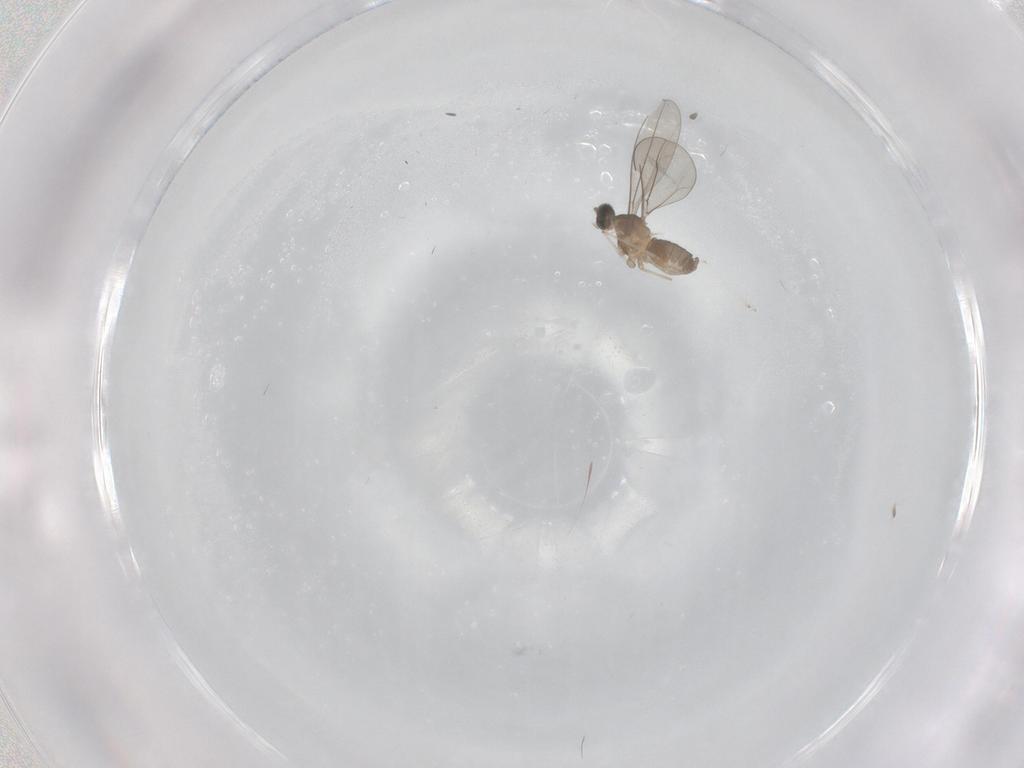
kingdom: Animalia
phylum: Arthropoda
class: Insecta
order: Diptera
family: Cecidomyiidae
